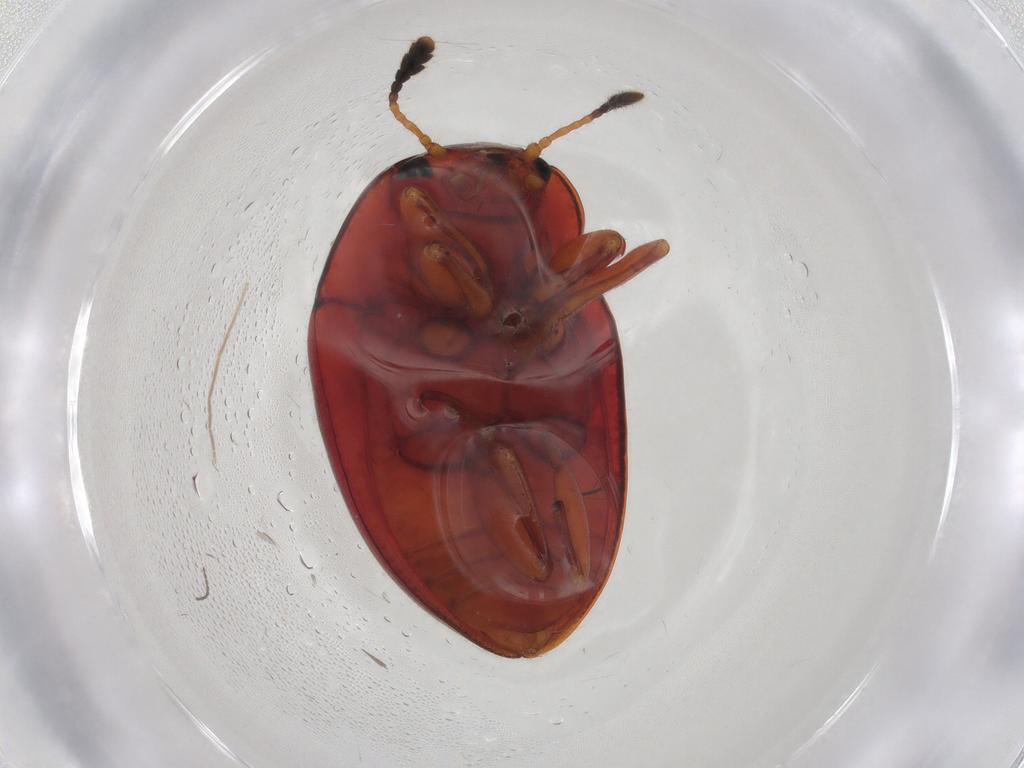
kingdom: Animalia
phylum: Arthropoda
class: Insecta
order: Coleoptera
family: Erotylidae
